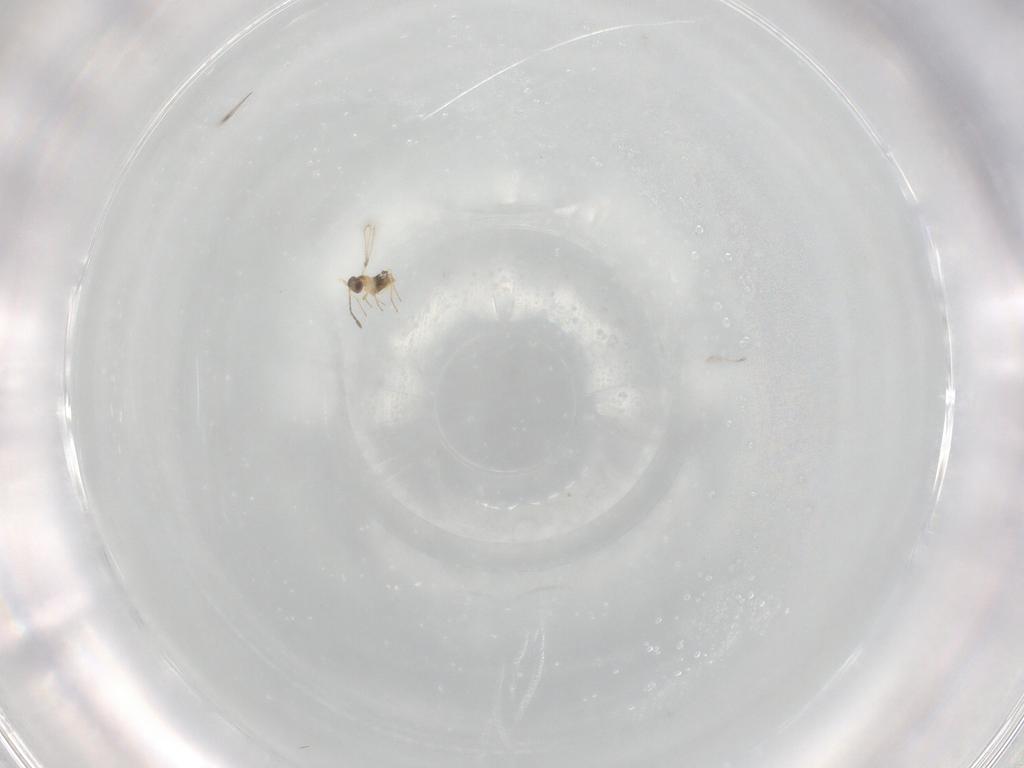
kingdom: Animalia
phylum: Arthropoda
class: Insecta
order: Hymenoptera
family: Mymaridae
